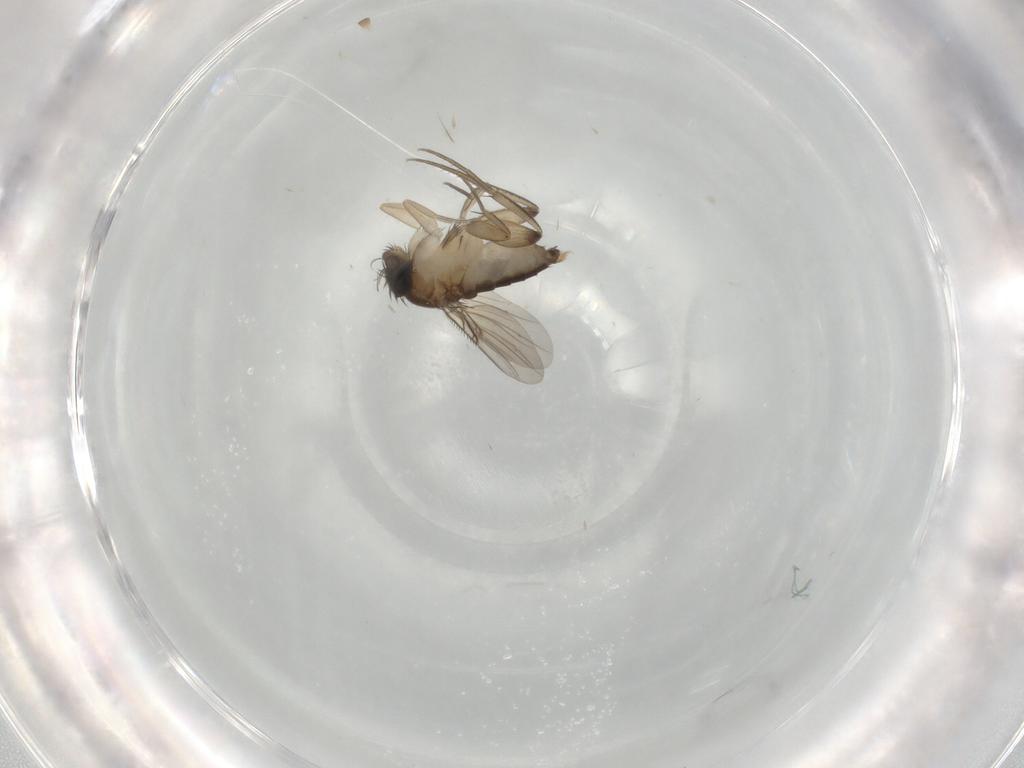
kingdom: Animalia
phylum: Arthropoda
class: Insecta
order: Diptera
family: Phoridae
